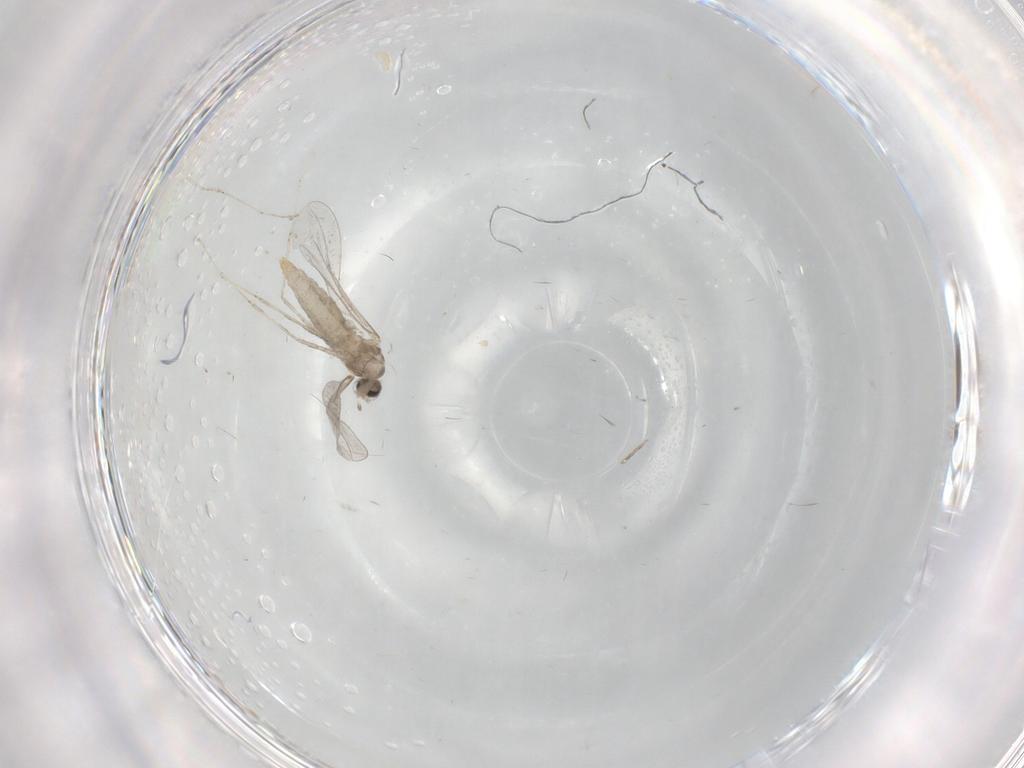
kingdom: Animalia
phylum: Arthropoda
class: Insecta
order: Diptera
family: Cecidomyiidae
